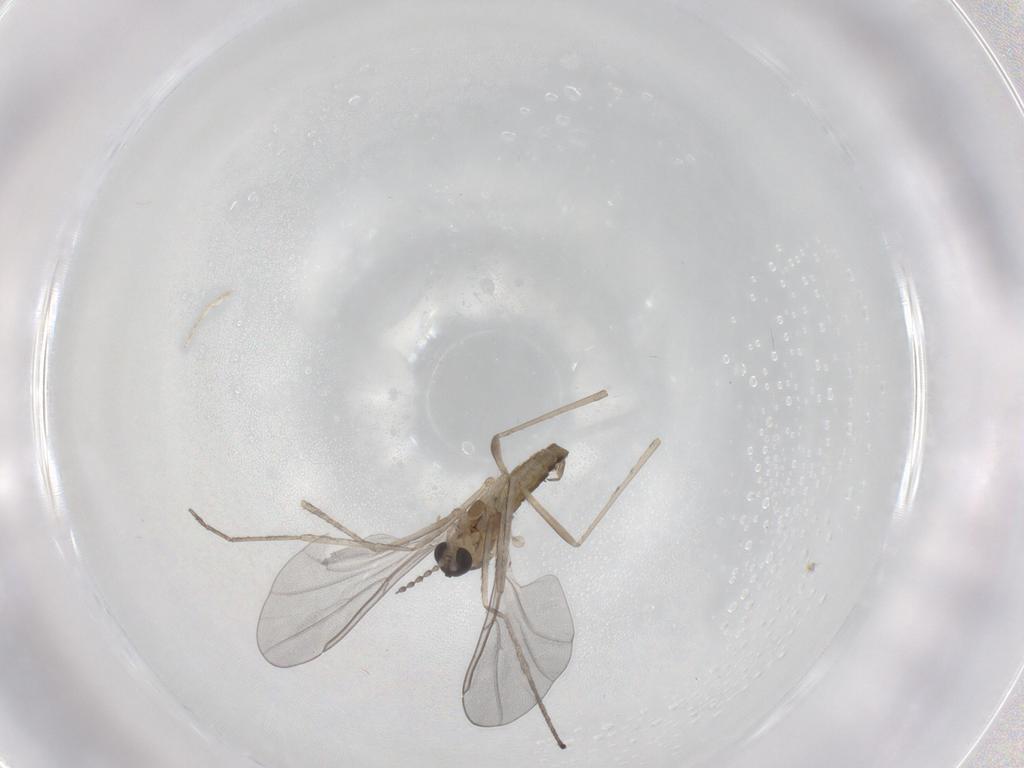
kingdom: Animalia
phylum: Arthropoda
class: Insecta
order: Diptera
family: Cecidomyiidae
